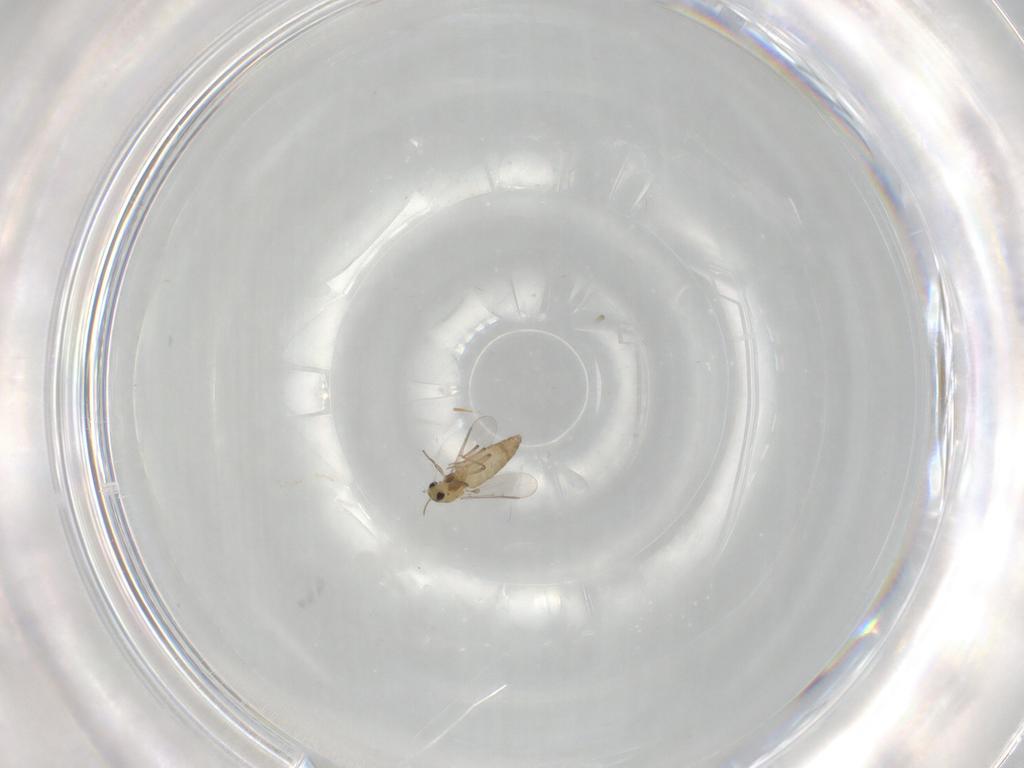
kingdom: Animalia
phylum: Arthropoda
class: Insecta
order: Diptera
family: Chironomidae
